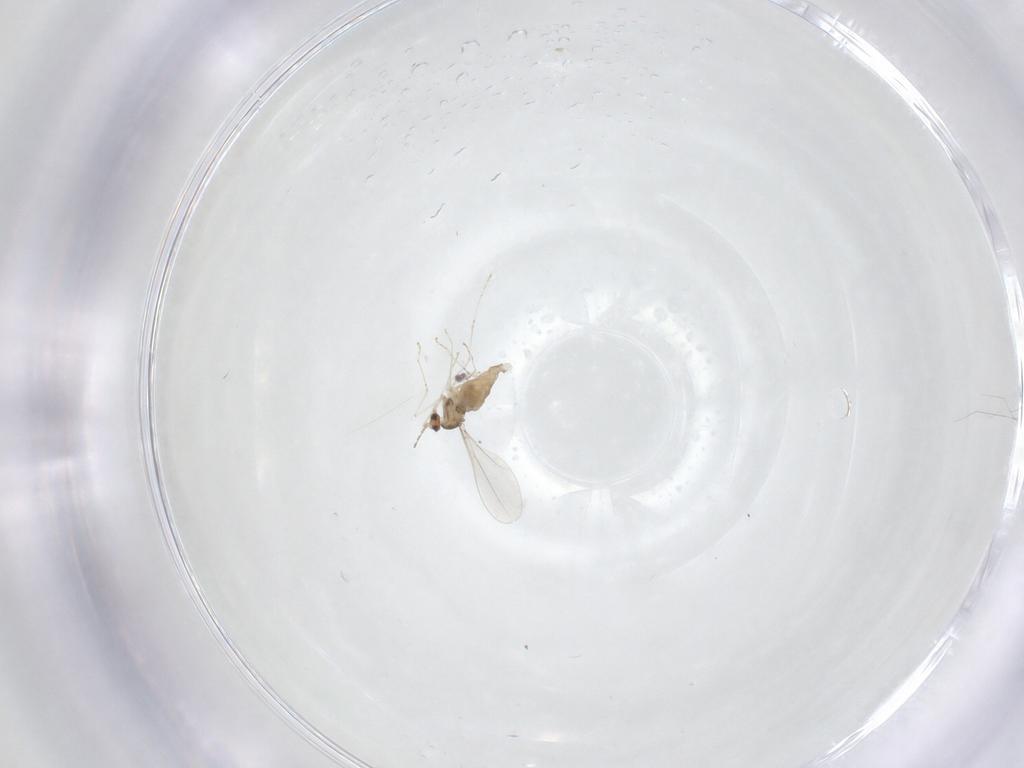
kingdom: Animalia
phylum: Arthropoda
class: Insecta
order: Diptera
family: Cecidomyiidae
